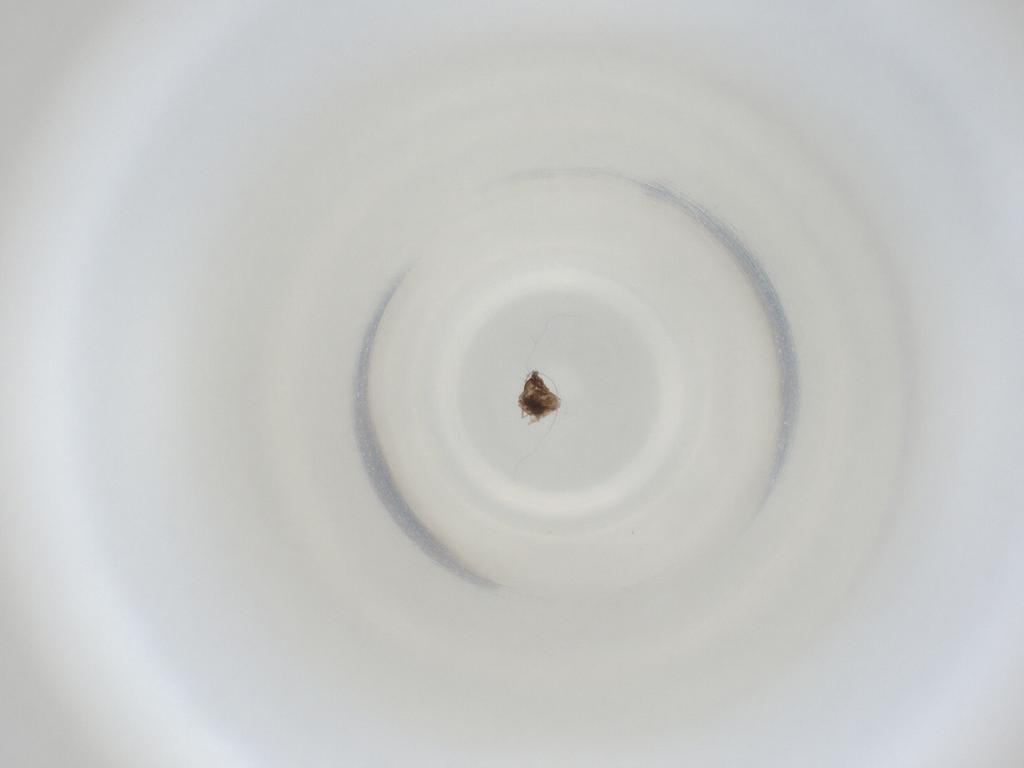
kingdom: Animalia
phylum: Arthropoda
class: Insecta
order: Diptera
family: Cecidomyiidae
